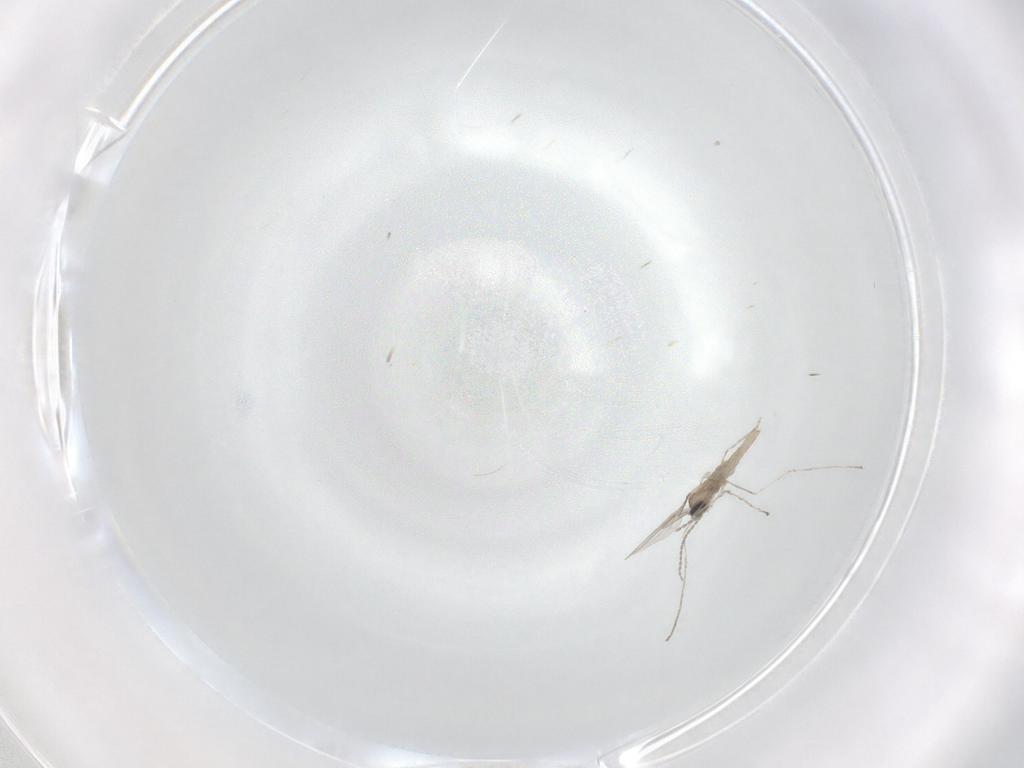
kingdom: Animalia
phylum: Arthropoda
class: Insecta
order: Diptera
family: Cecidomyiidae
